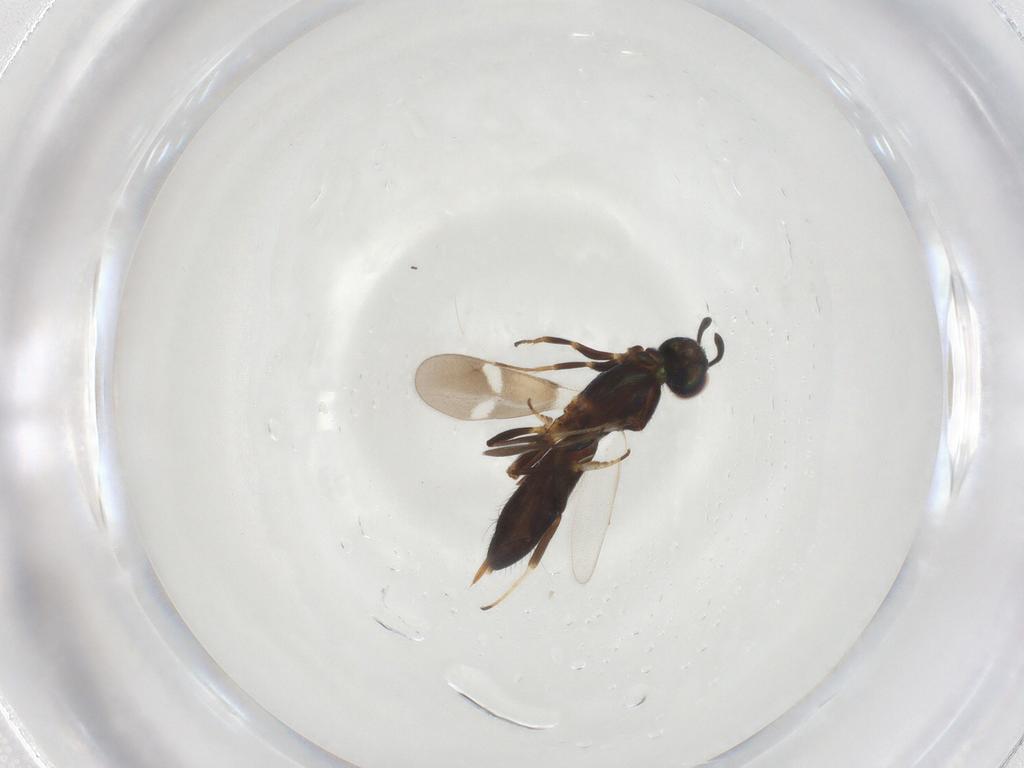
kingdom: Animalia
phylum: Arthropoda
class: Insecta
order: Hymenoptera
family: Eupelmidae
